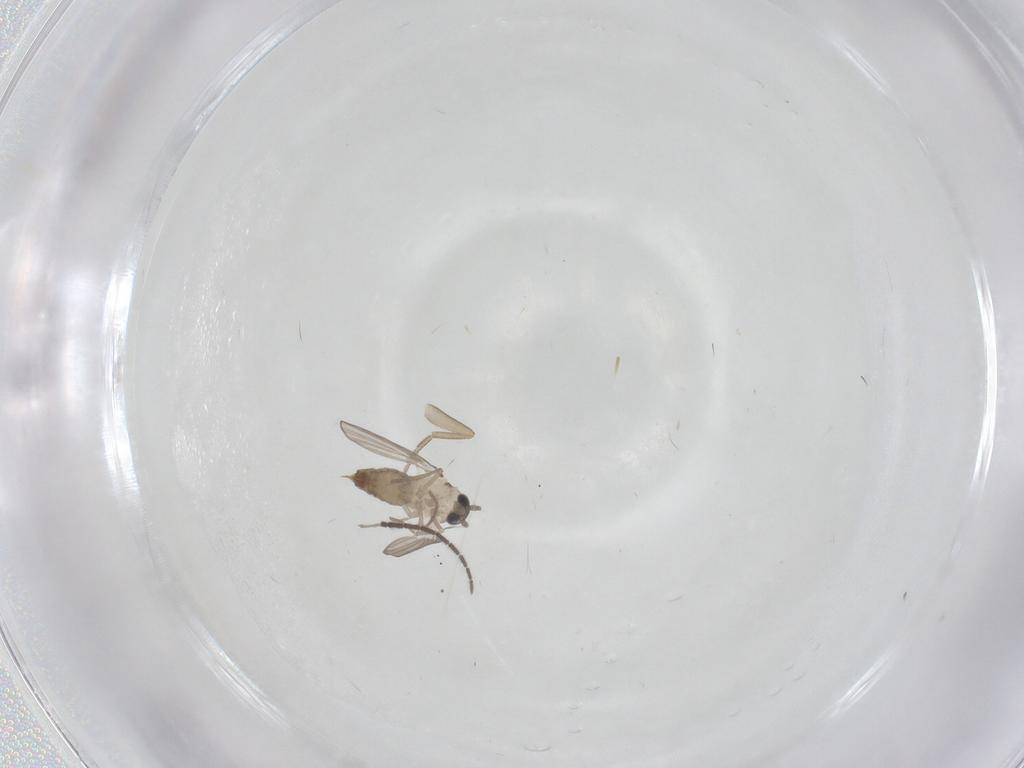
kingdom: Animalia
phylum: Arthropoda
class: Insecta
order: Diptera
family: Psychodidae
